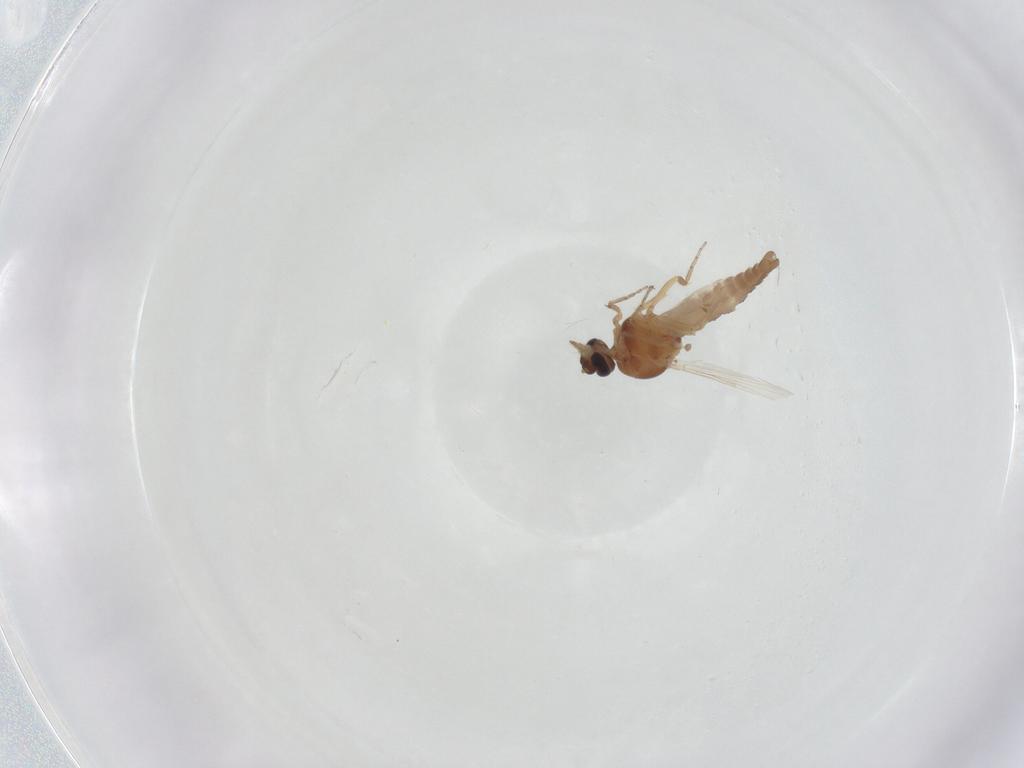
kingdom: Animalia
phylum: Arthropoda
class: Insecta
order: Diptera
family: Ceratopogonidae
